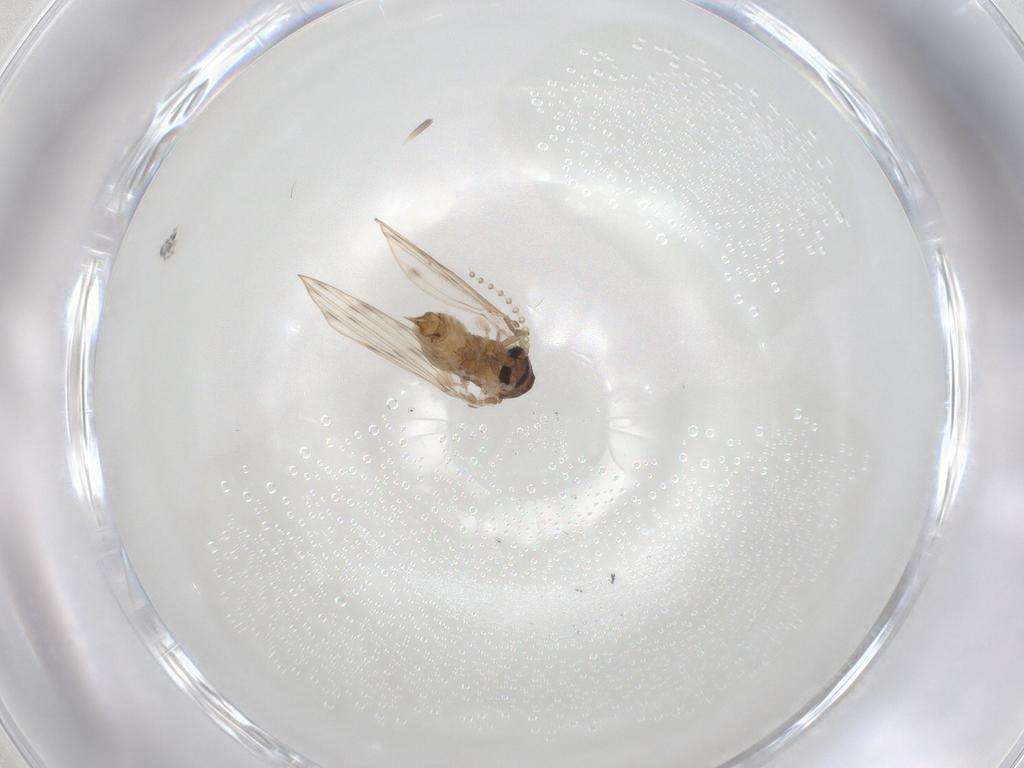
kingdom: Animalia
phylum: Arthropoda
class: Insecta
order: Diptera
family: Psychodidae
